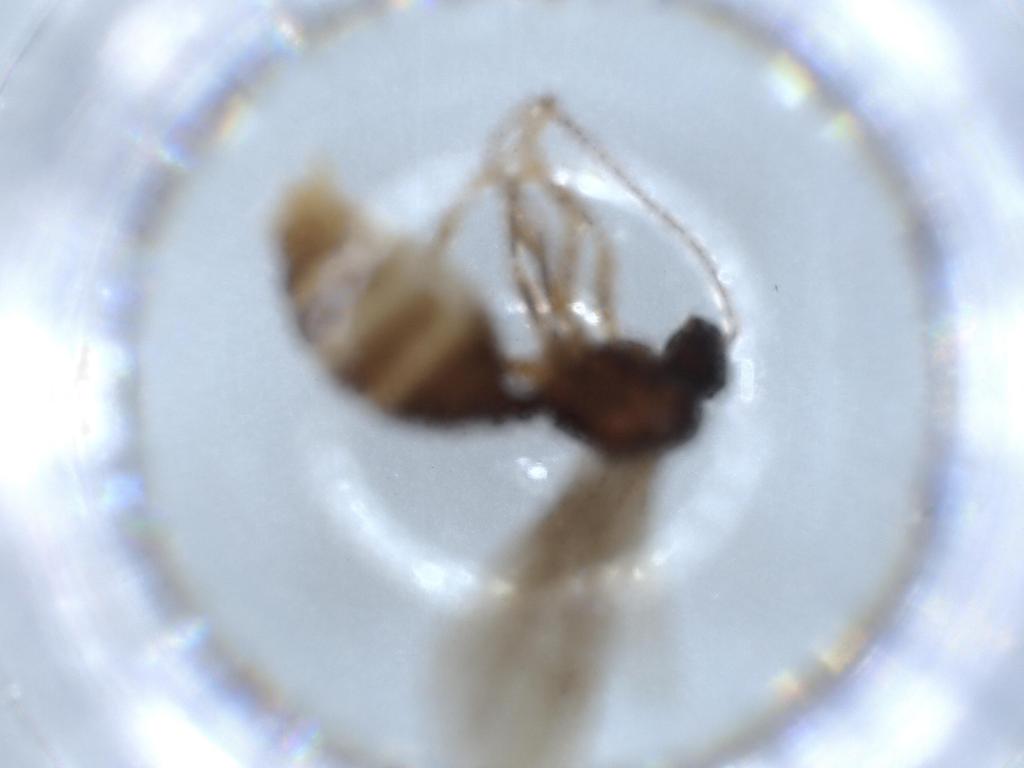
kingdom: Animalia
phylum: Arthropoda
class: Insecta
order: Hymenoptera
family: Formicidae
